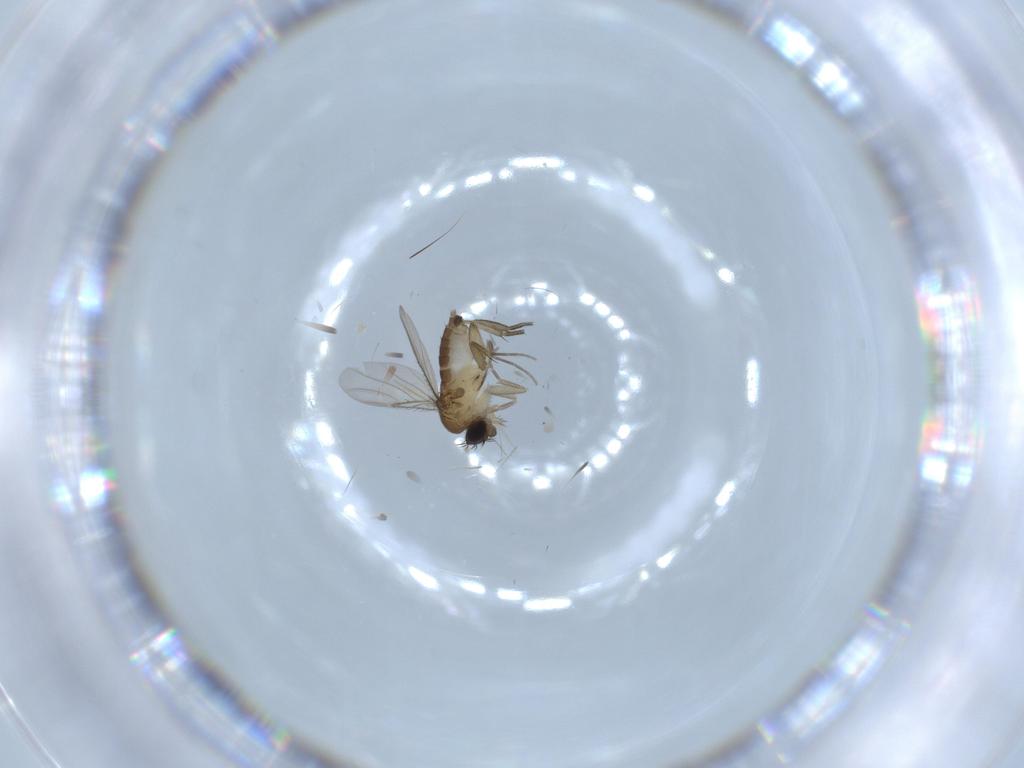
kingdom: Animalia
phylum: Arthropoda
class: Insecta
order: Diptera
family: Phoridae
